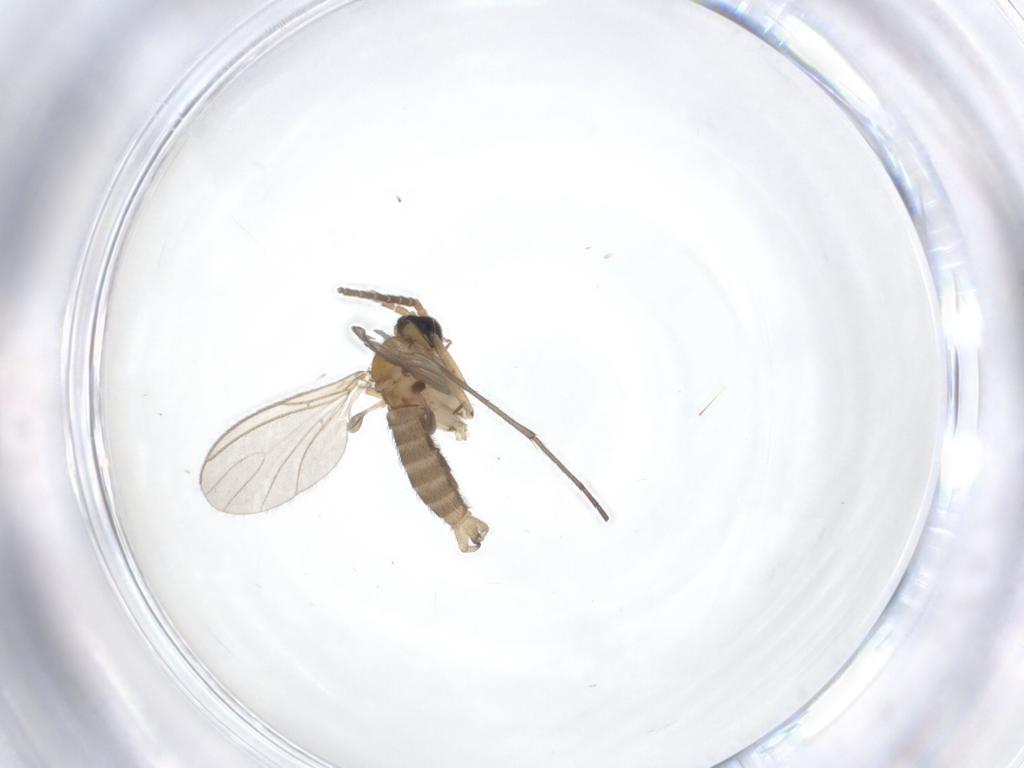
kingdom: Animalia
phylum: Arthropoda
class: Insecta
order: Diptera
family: Sciaridae
